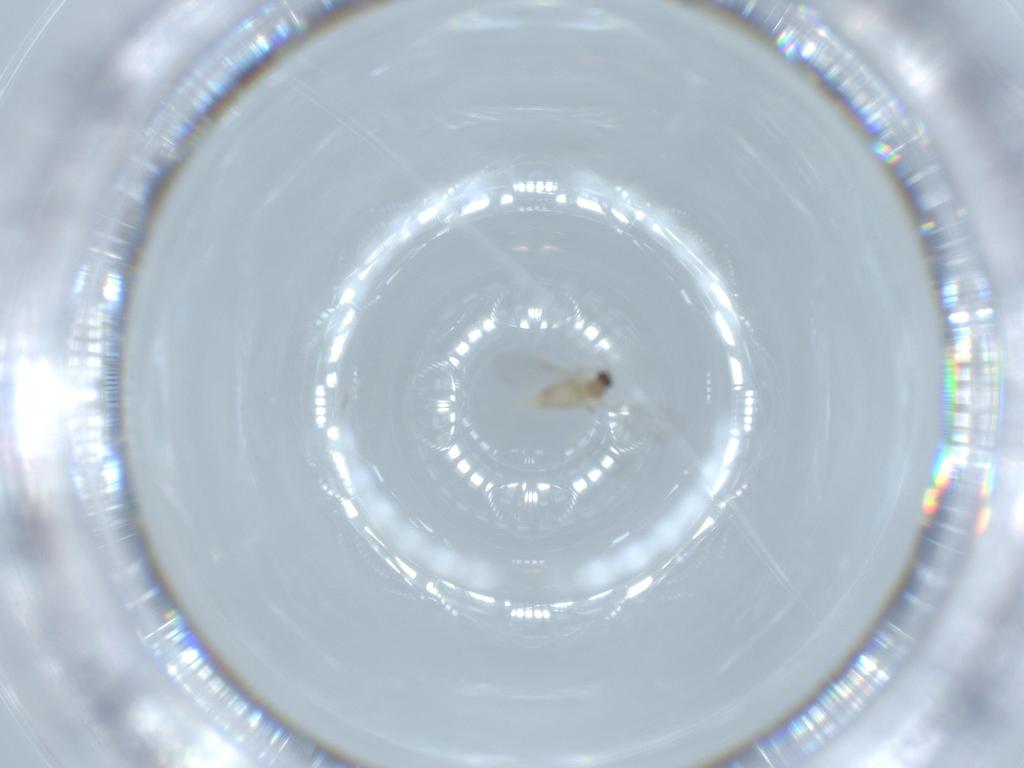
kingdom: Animalia
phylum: Arthropoda
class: Insecta
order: Diptera
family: Cecidomyiidae
